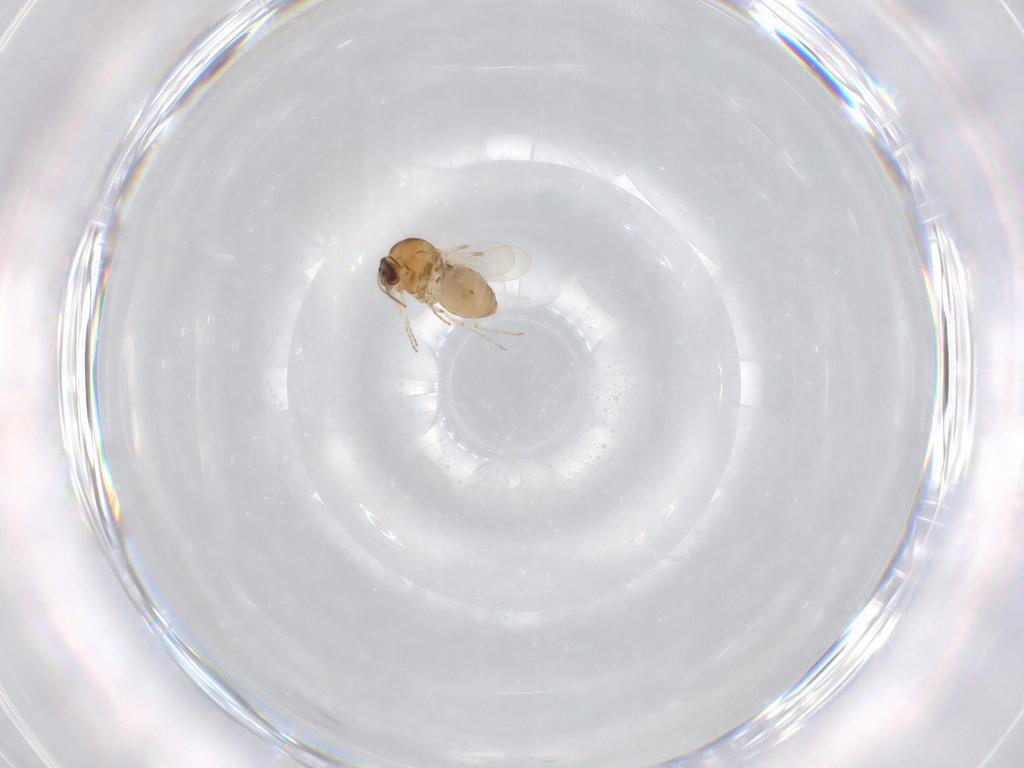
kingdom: Animalia
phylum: Arthropoda
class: Insecta
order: Diptera
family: Ceratopogonidae
